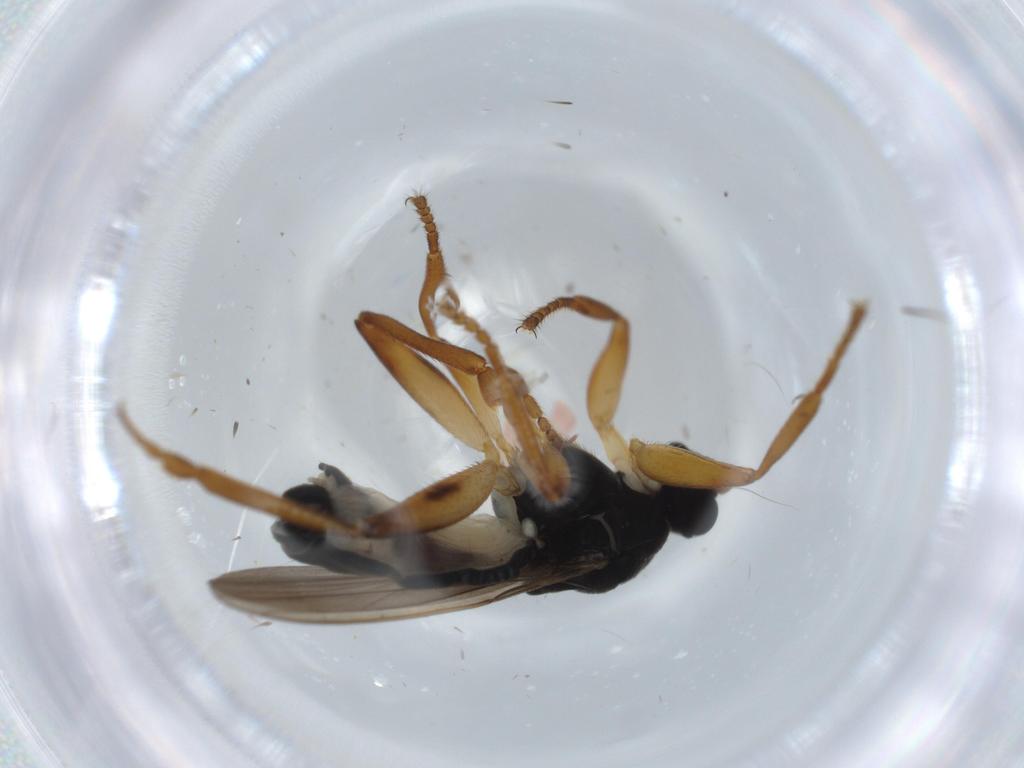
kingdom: Animalia
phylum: Arthropoda
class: Insecta
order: Diptera
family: Sphaeroceridae
